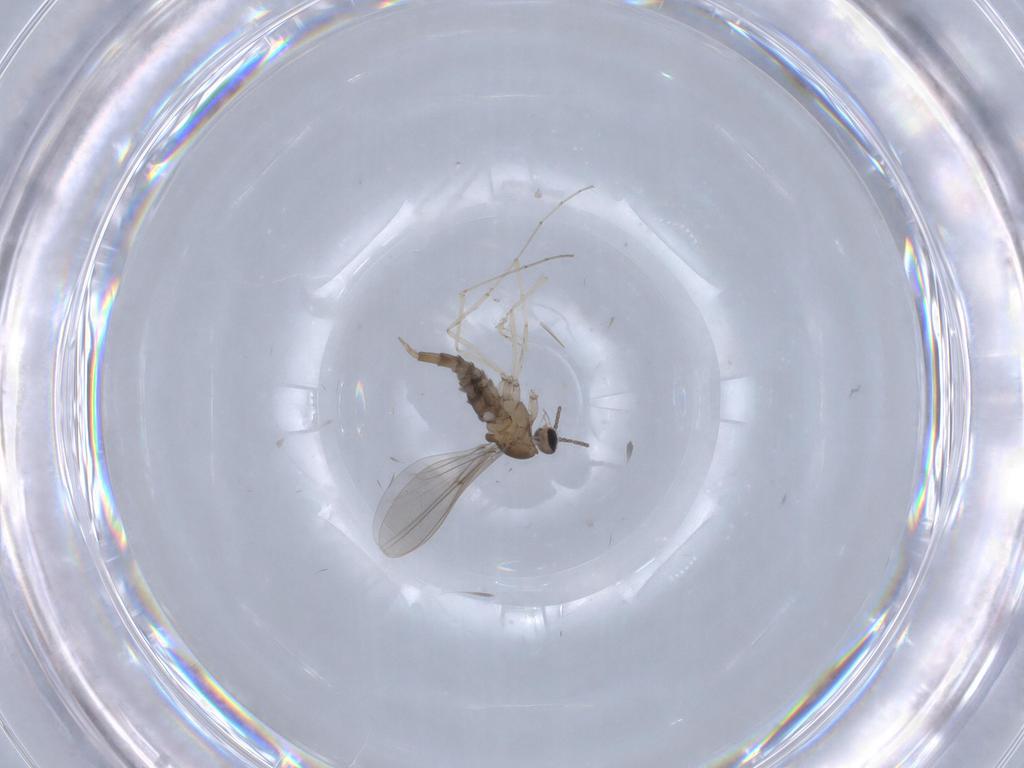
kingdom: Animalia
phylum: Arthropoda
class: Insecta
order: Diptera
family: Cecidomyiidae
